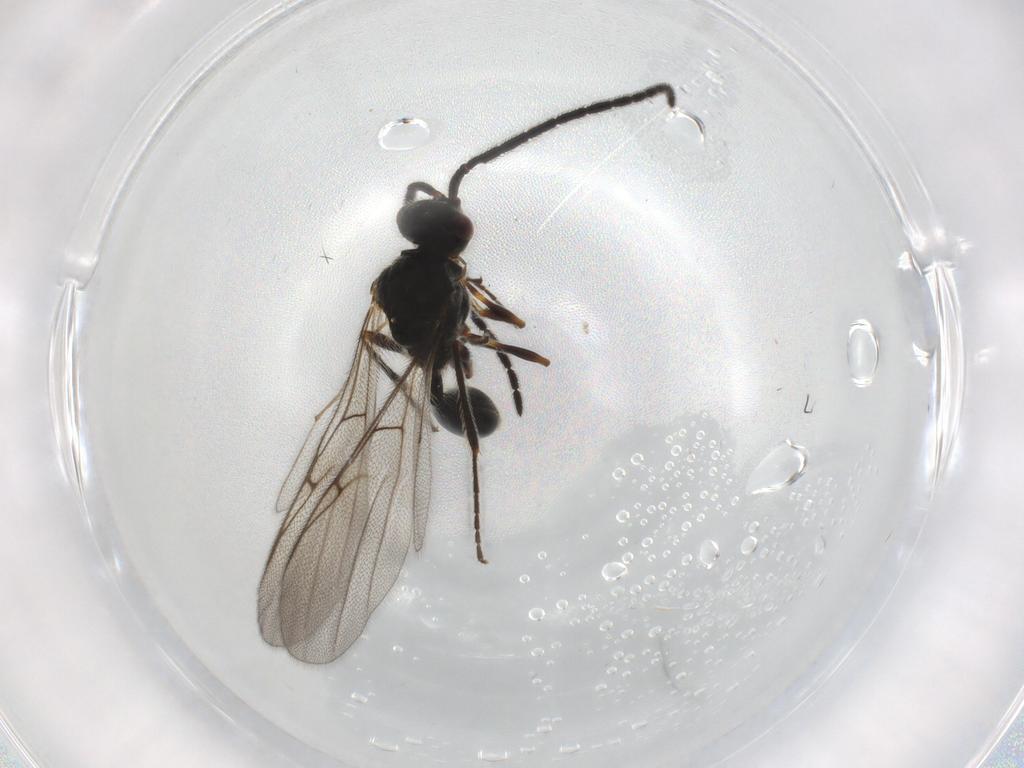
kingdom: Animalia
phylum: Arthropoda
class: Insecta
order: Hymenoptera
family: Diapriidae
